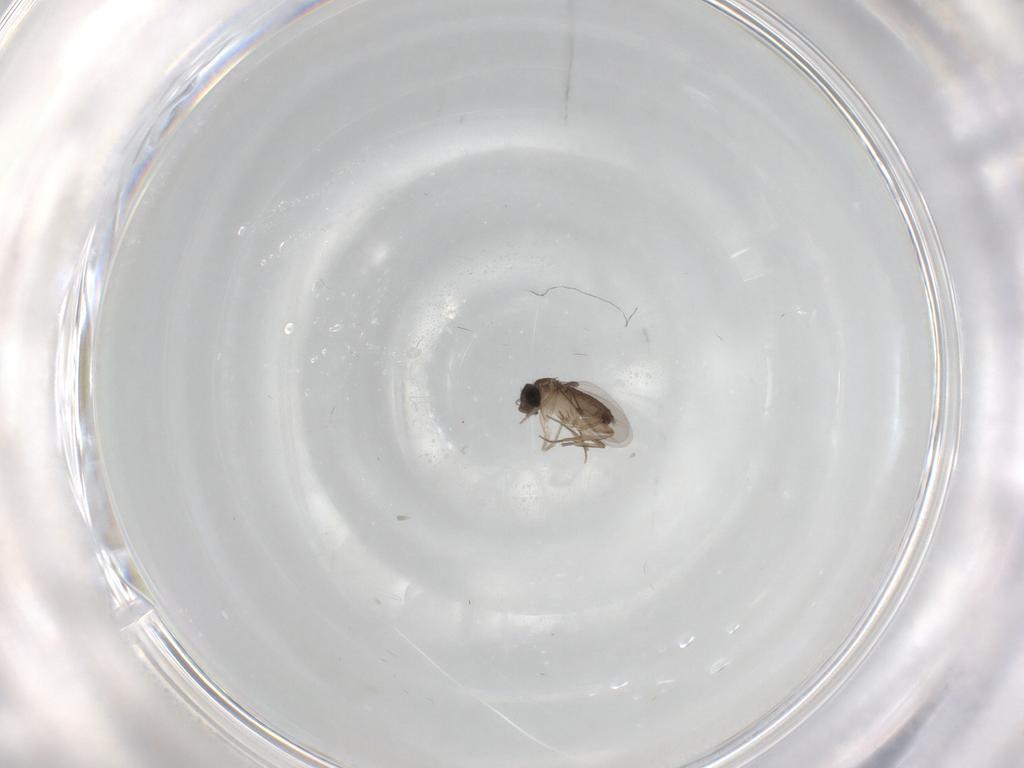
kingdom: Animalia
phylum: Arthropoda
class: Insecta
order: Diptera
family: Phoridae
